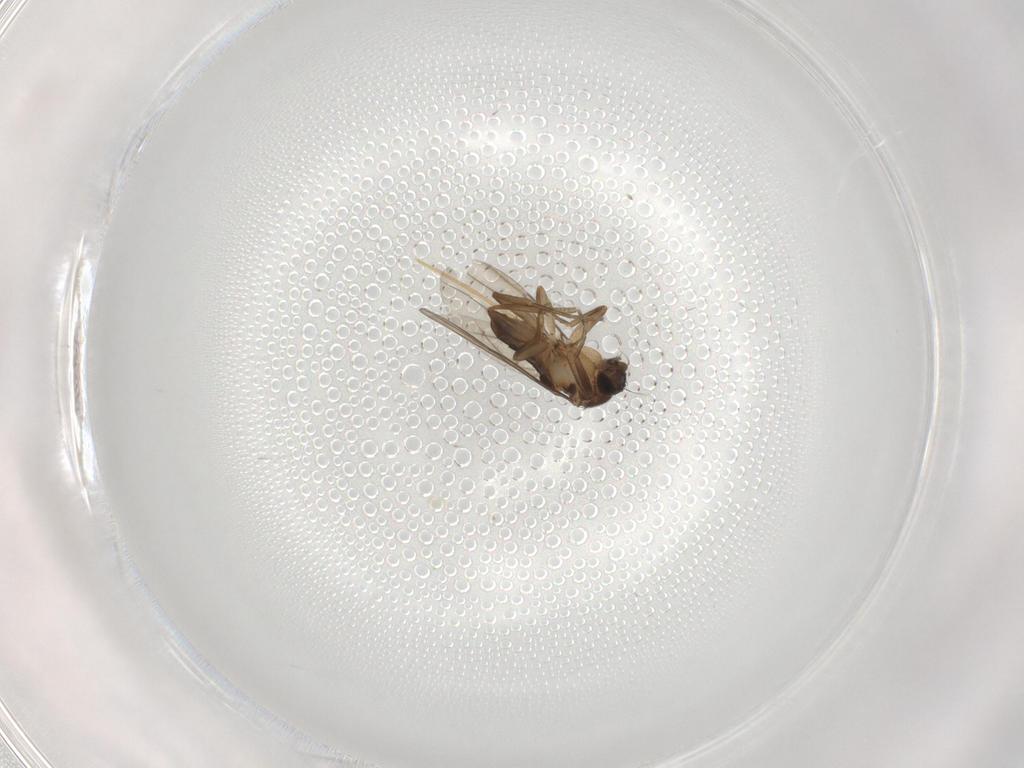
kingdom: Animalia
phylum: Arthropoda
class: Insecta
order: Diptera
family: Phoridae
